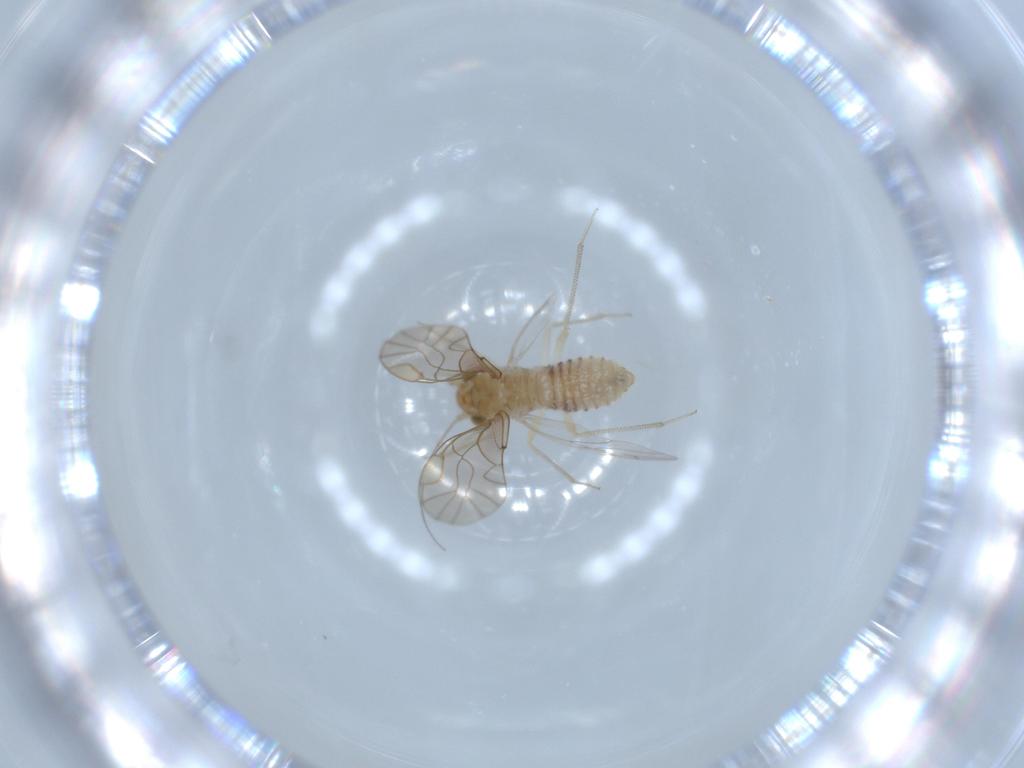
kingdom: Animalia
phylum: Arthropoda
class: Insecta
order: Psocodea
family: Lachesillidae
